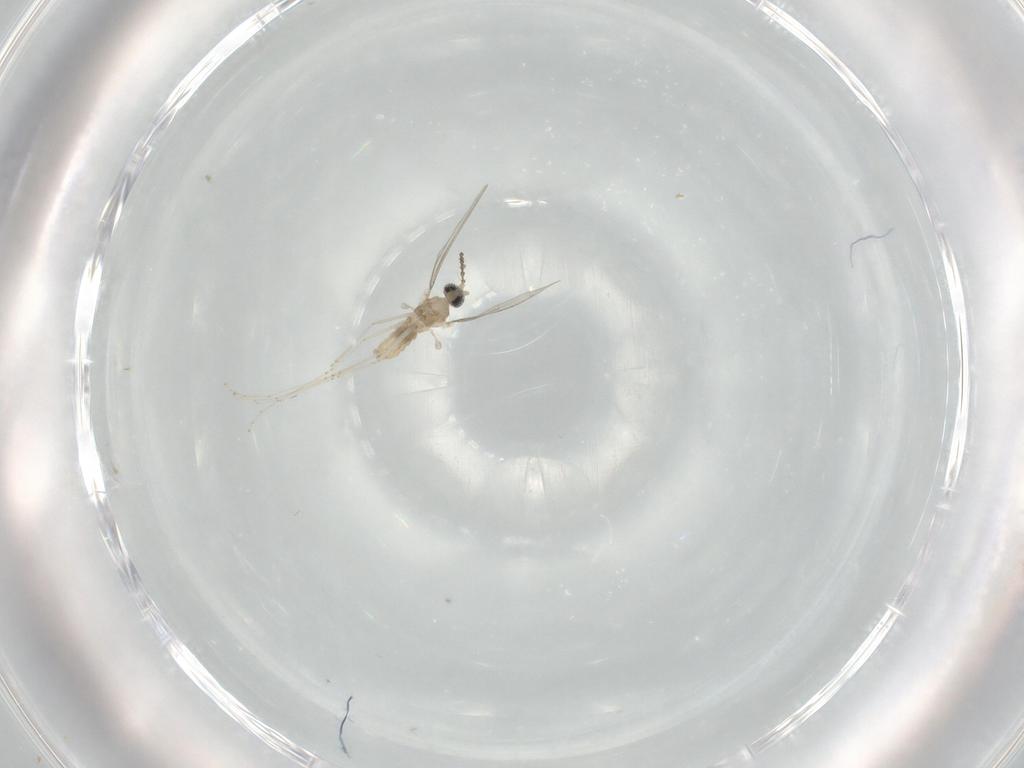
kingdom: Animalia
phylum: Arthropoda
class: Insecta
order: Diptera
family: Cecidomyiidae
